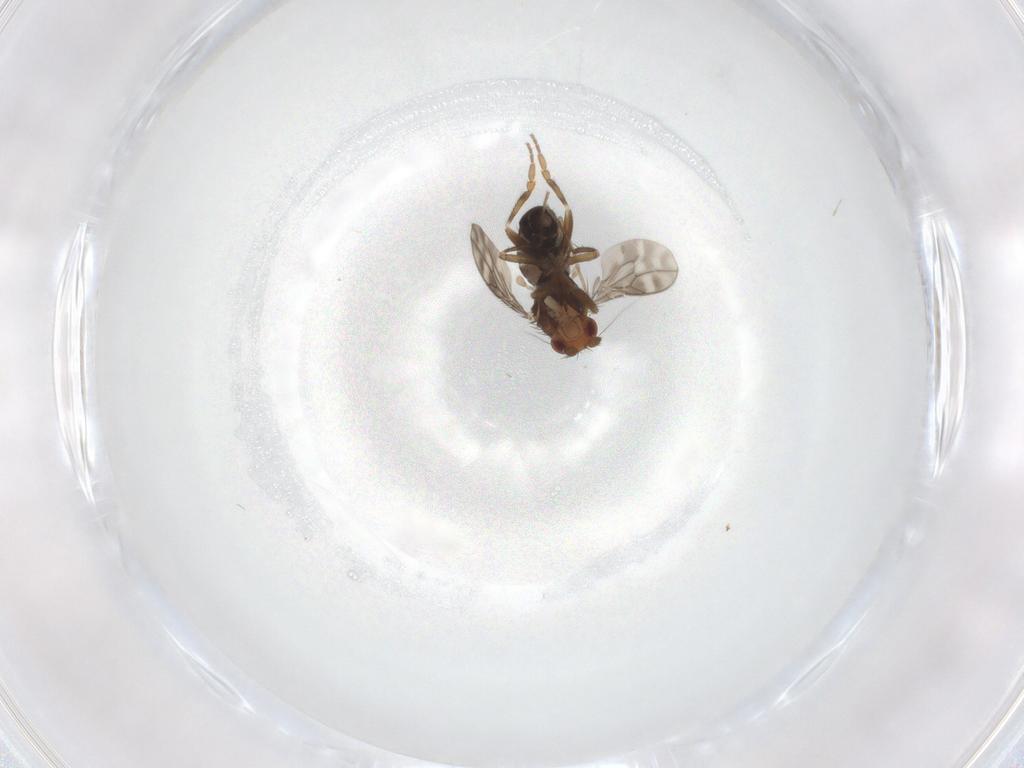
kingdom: Animalia
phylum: Arthropoda
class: Insecta
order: Diptera
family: Sphaeroceridae
